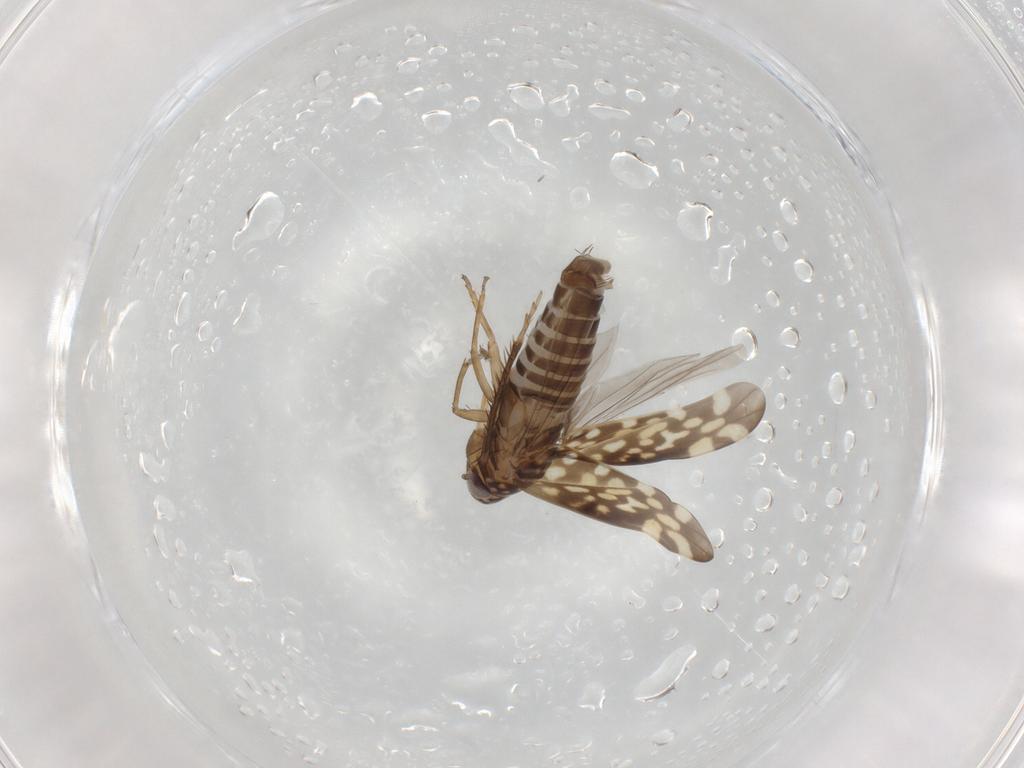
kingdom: Animalia
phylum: Arthropoda
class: Insecta
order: Hemiptera
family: Cicadellidae
